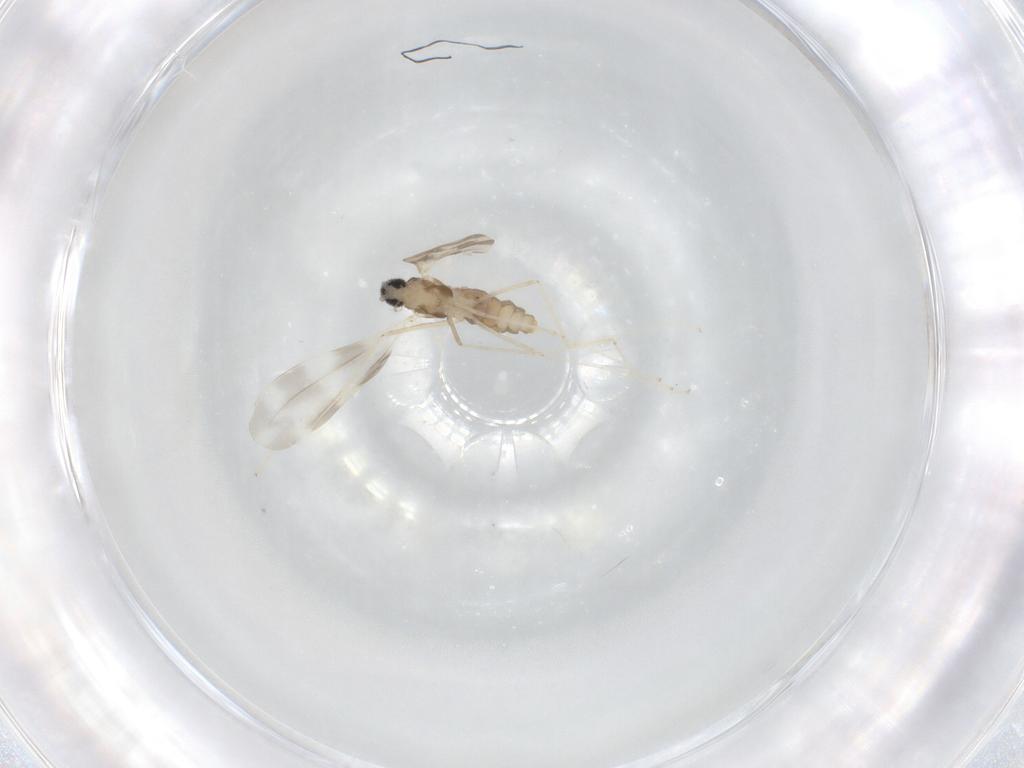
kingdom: Animalia
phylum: Arthropoda
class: Insecta
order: Diptera
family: Cecidomyiidae
